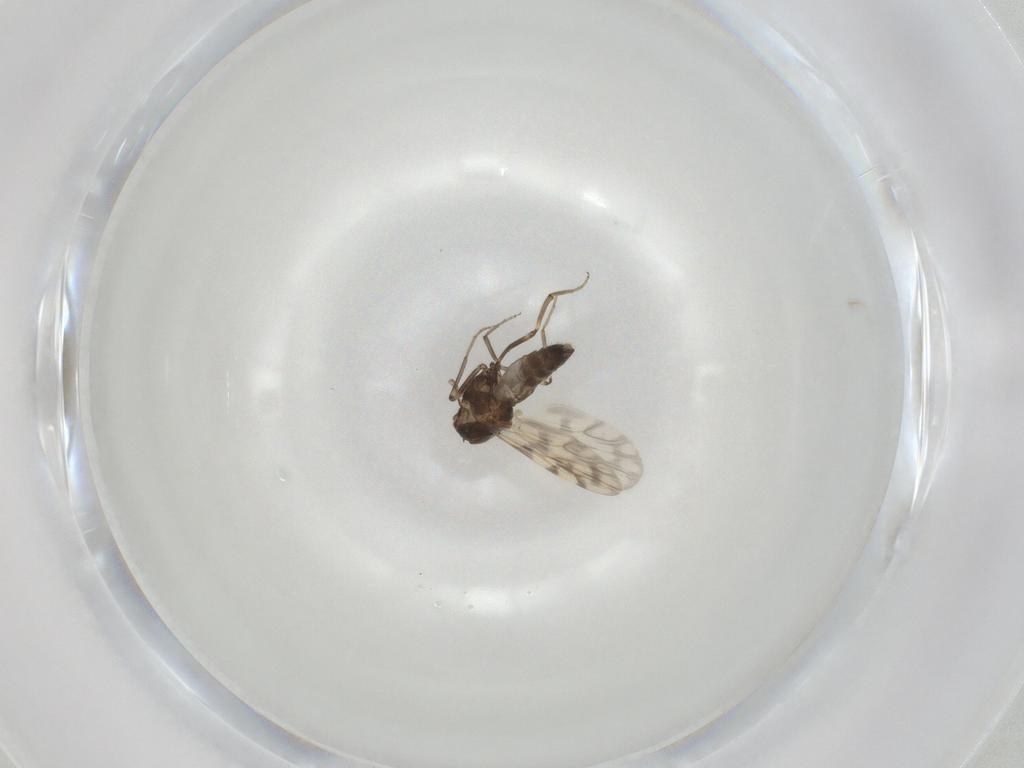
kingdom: Animalia
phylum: Arthropoda
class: Insecta
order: Diptera
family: Ceratopogonidae
